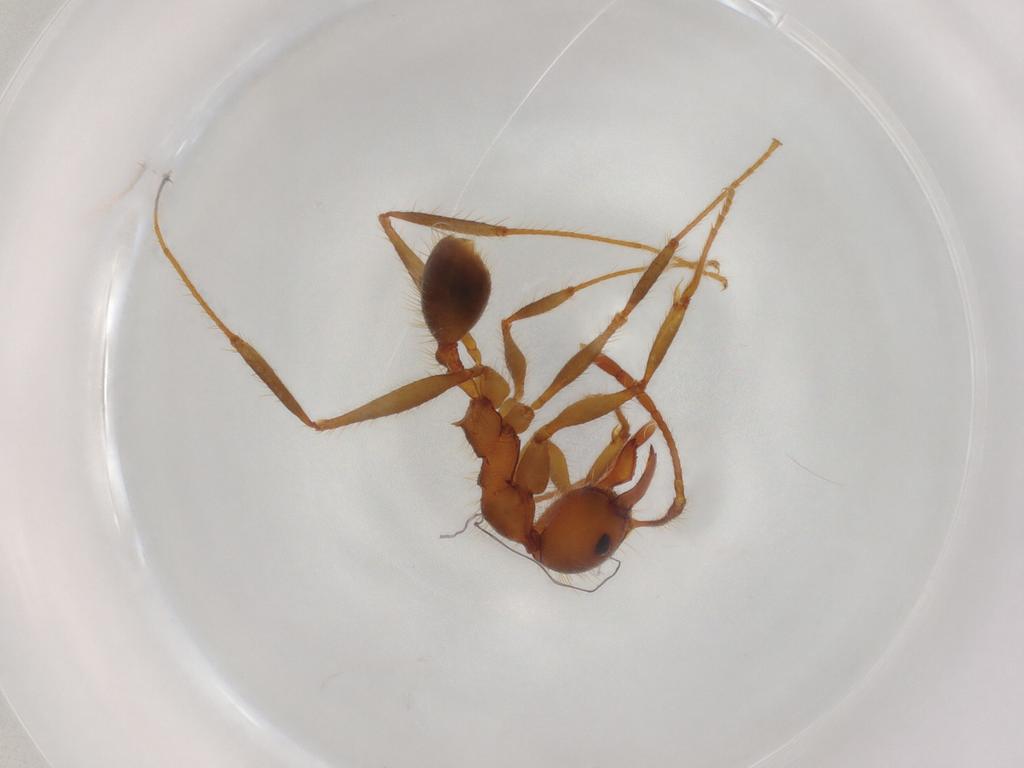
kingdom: Animalia
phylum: Arthropoda
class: Insecta
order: Hymenoptera
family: Formicidae
